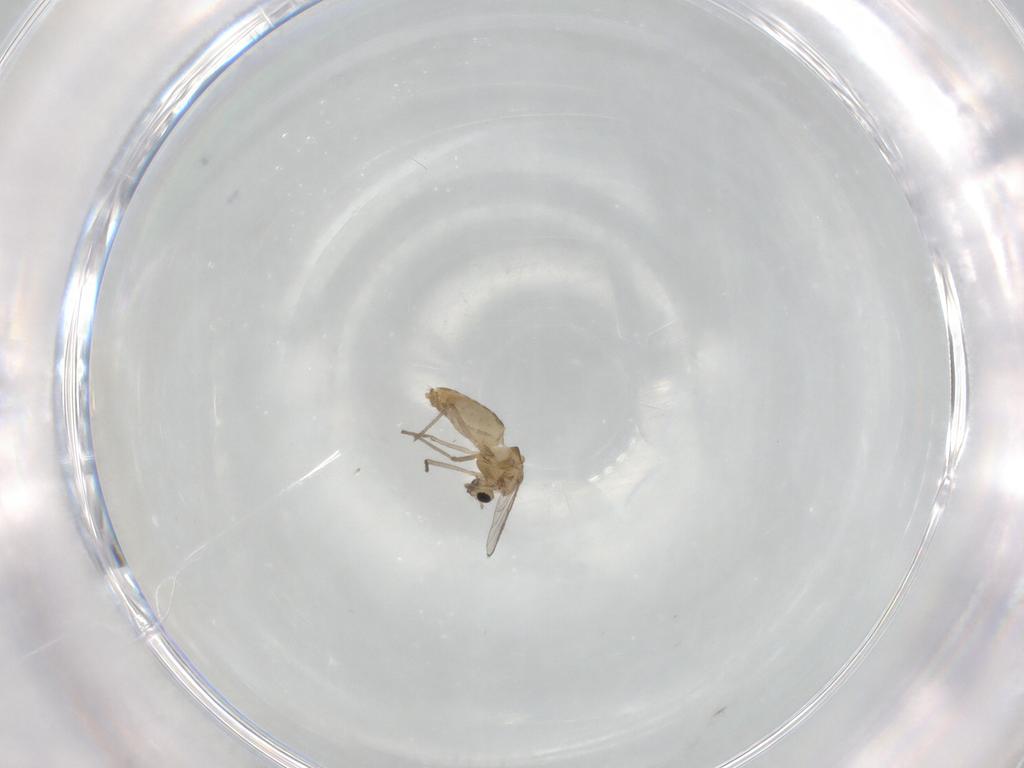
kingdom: Animalia
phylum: Arthropoda
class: Insecta
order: Diptera
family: Chironomidae
